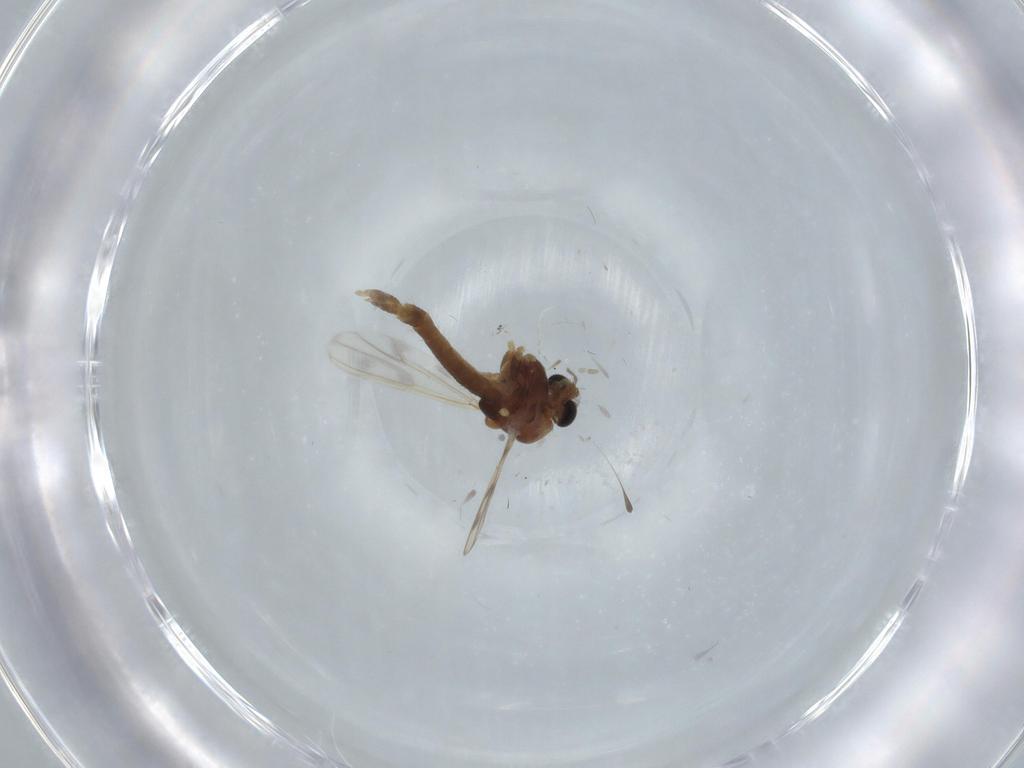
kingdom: Animalia
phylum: Arthropoda
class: Insecta
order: Diptera
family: Chironomidae
